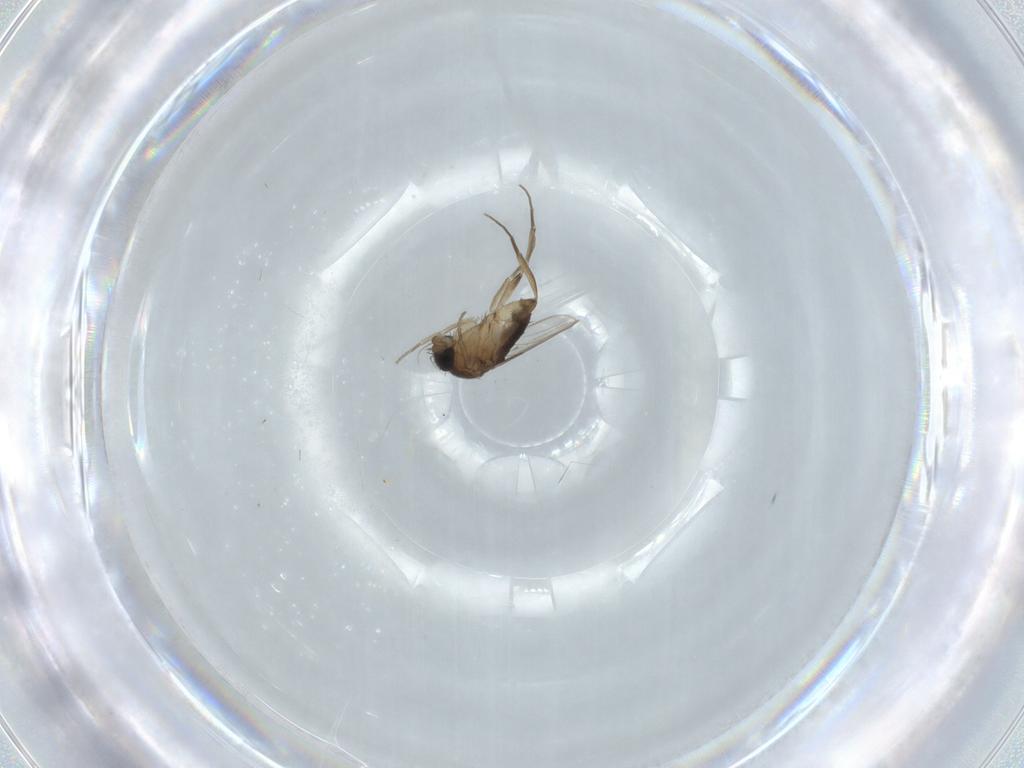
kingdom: Animalia
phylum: Arthropoda
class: Insecta
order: Diptera
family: Phoridae
